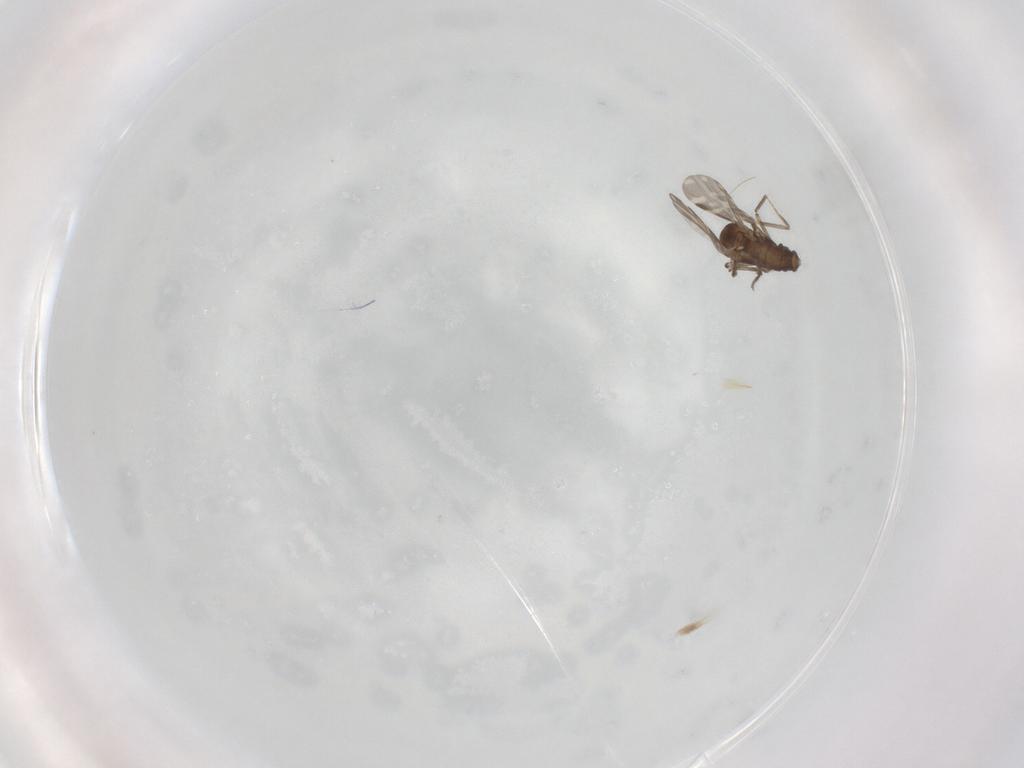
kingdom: Animalia
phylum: Arthropoda
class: Insecta
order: Diptera
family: Ceratopogonidae
